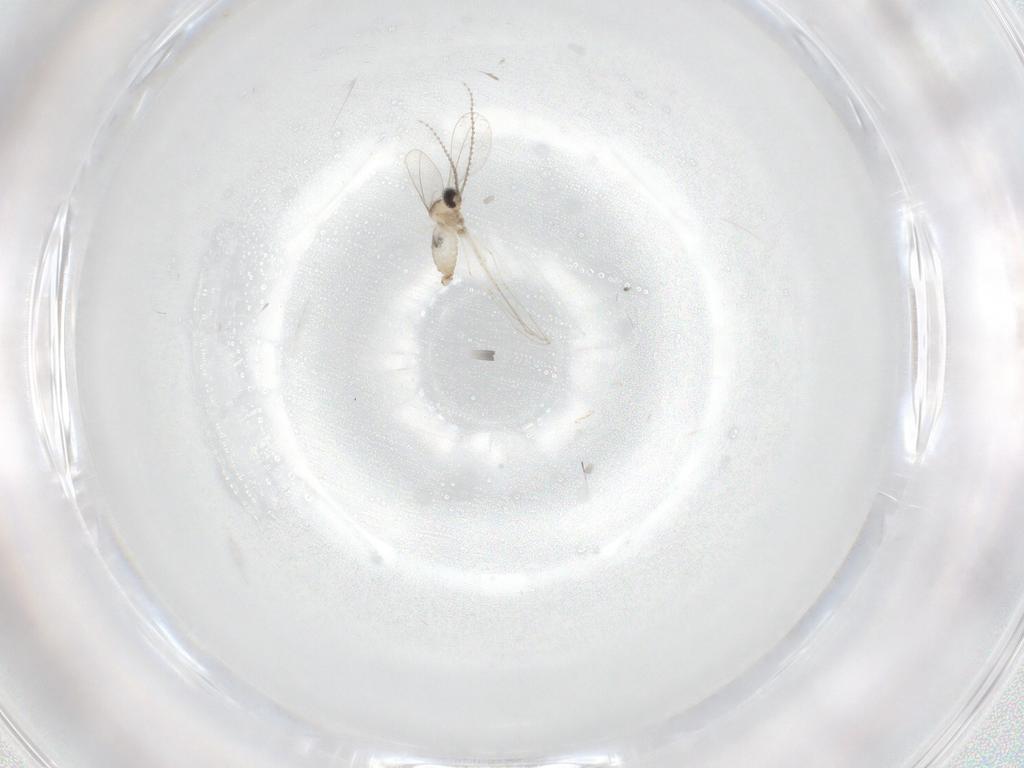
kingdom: Animalia
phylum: Arthropoda
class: Insecta
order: Diptera
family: Cecidomyiidae
